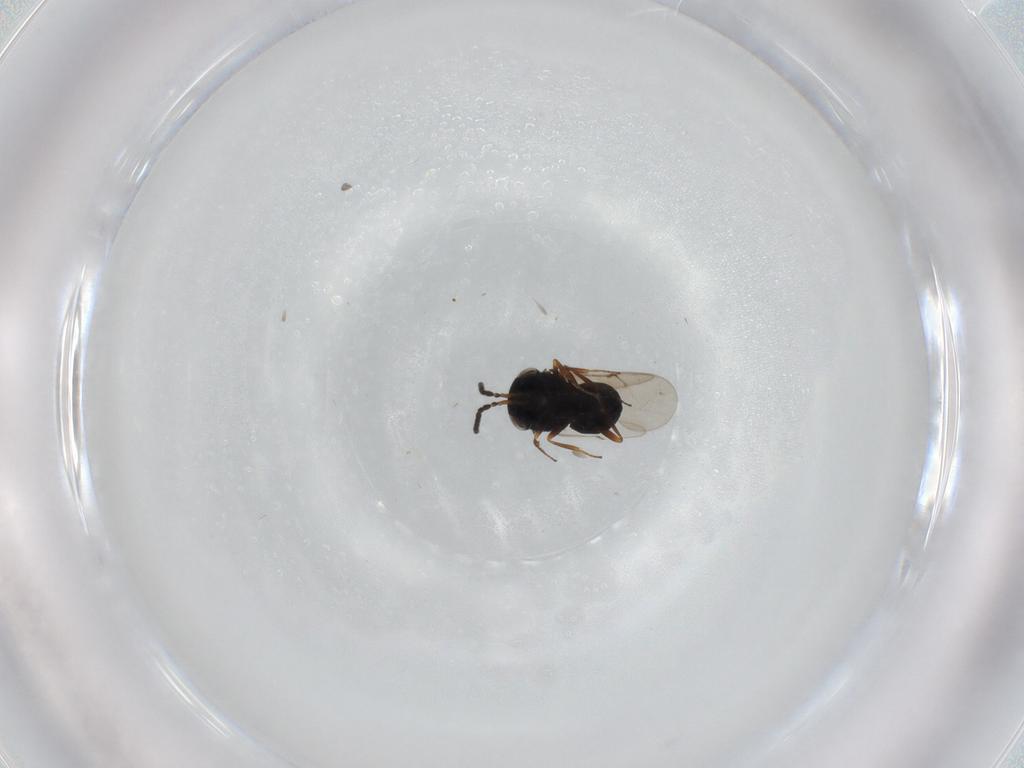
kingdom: Animalia
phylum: Arthropoda
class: Insecta
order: Hymenoptera
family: Scelionidae
